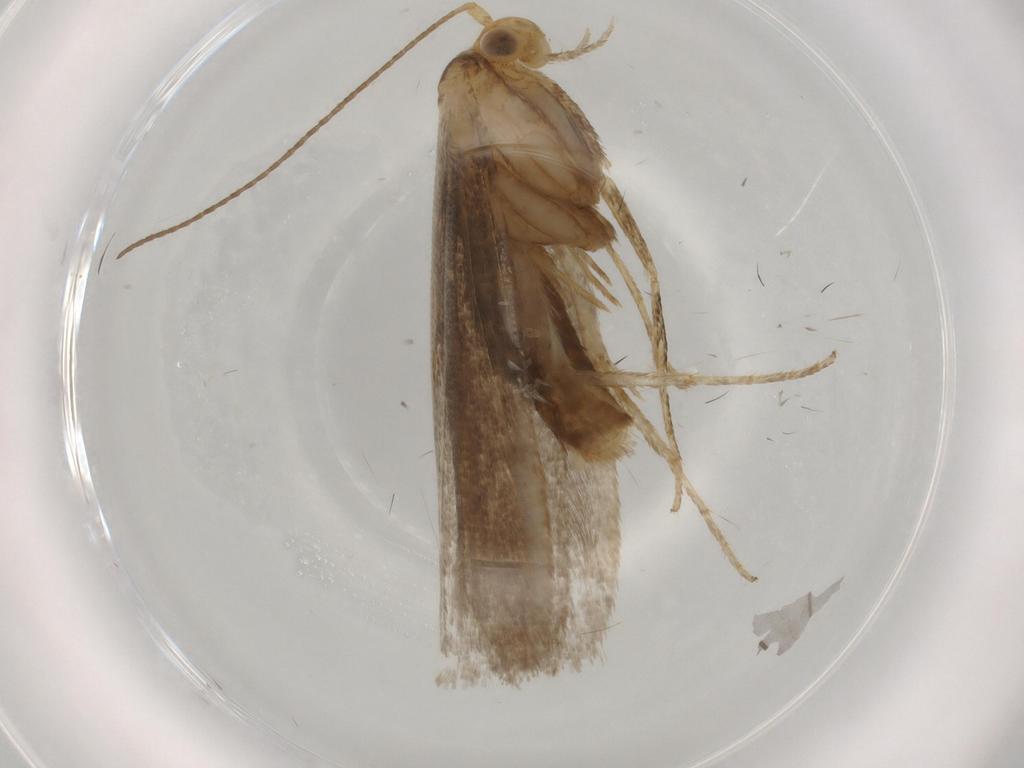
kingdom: Animalia
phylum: Arthropoda
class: Insecta
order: Lepidoptera
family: Argyresthiidae
